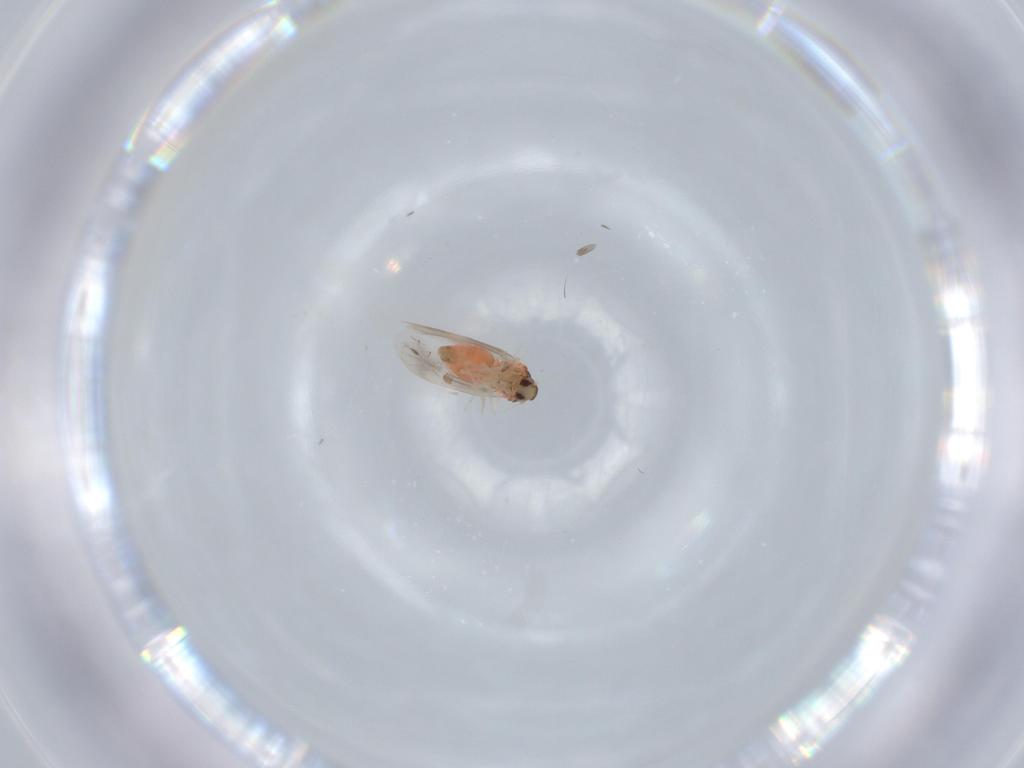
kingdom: Animalia
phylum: Arthropoda
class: Insecta
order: Hemiptera
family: Aleyrodidae
